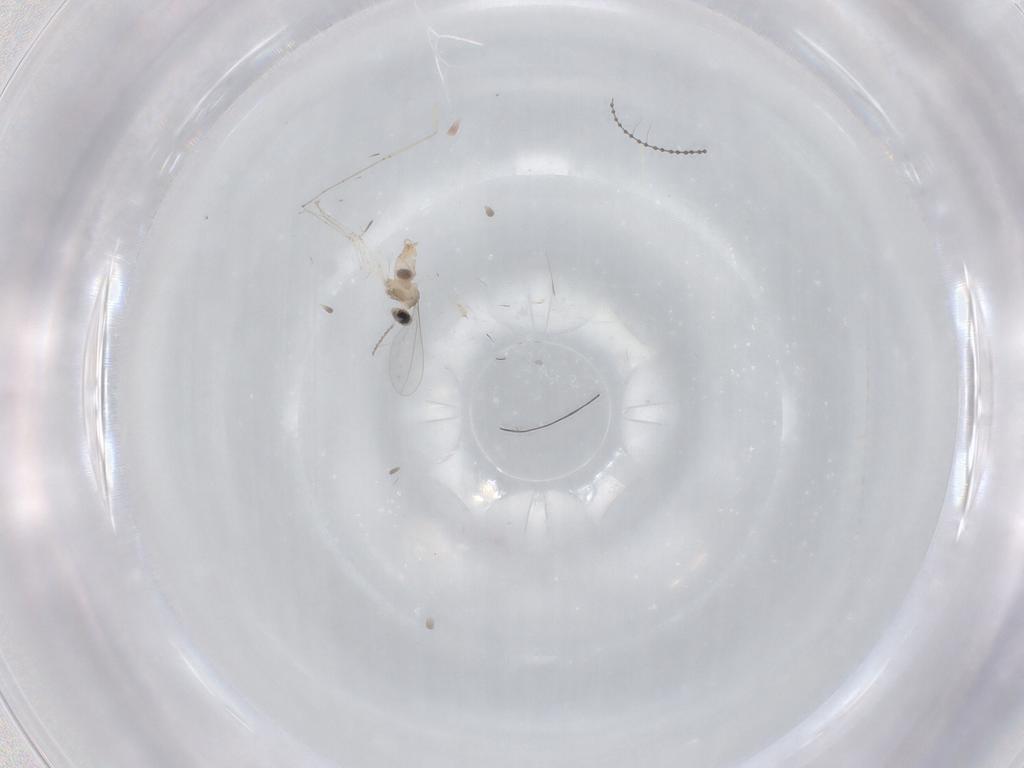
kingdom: Animalia
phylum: Arthropoda
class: Insecta
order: Diptera
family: Cecidomyiidae
